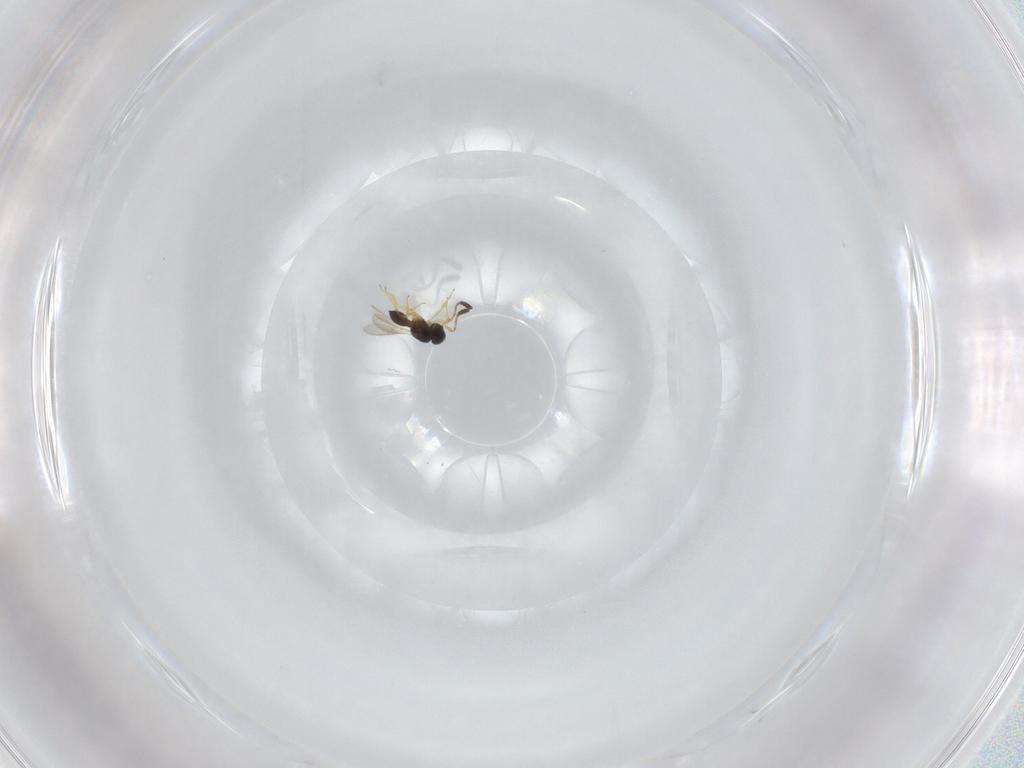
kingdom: Animalia
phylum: Arthropoda
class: Insecta
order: Hymenoptera
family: Scelionidae
